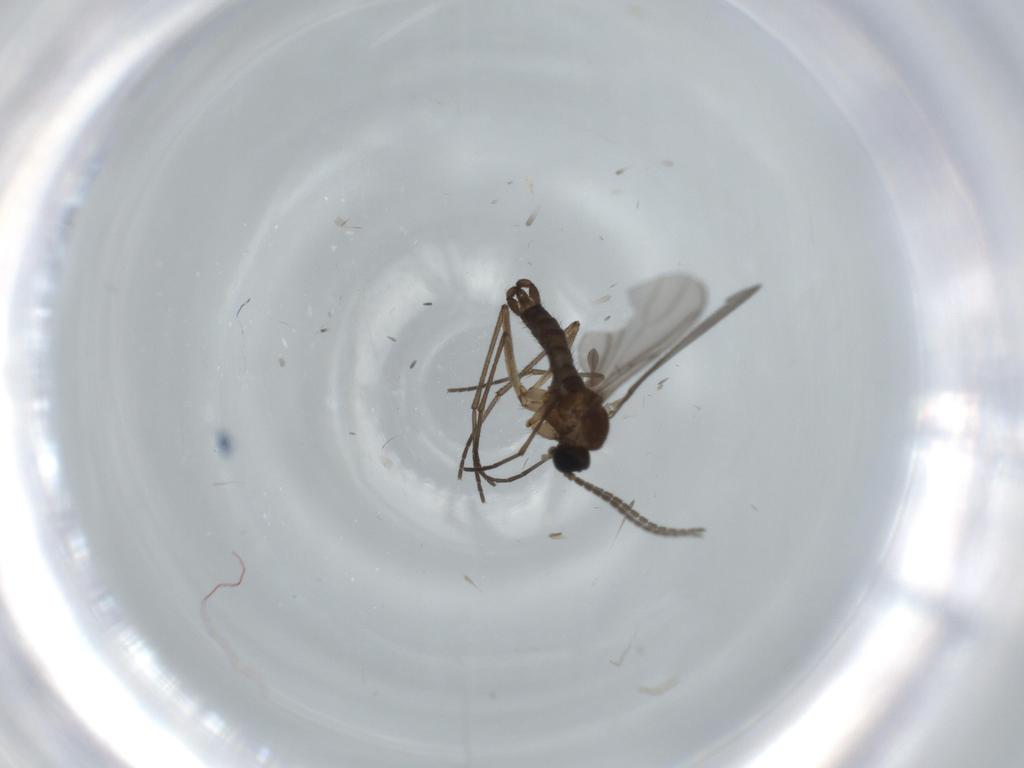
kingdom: Animalia
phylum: Arthropoda
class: Insecta
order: Diptera
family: Sciaridae
